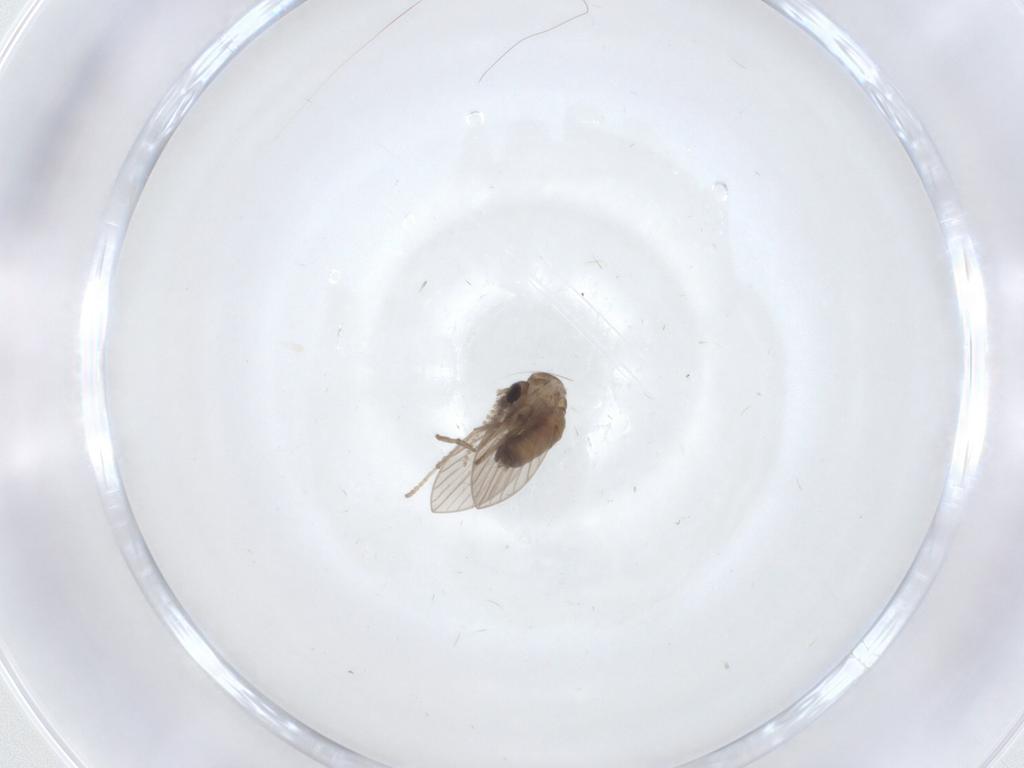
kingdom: Animalia
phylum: Arthropoda
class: Insecta
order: Diptera
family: Psychodidae
